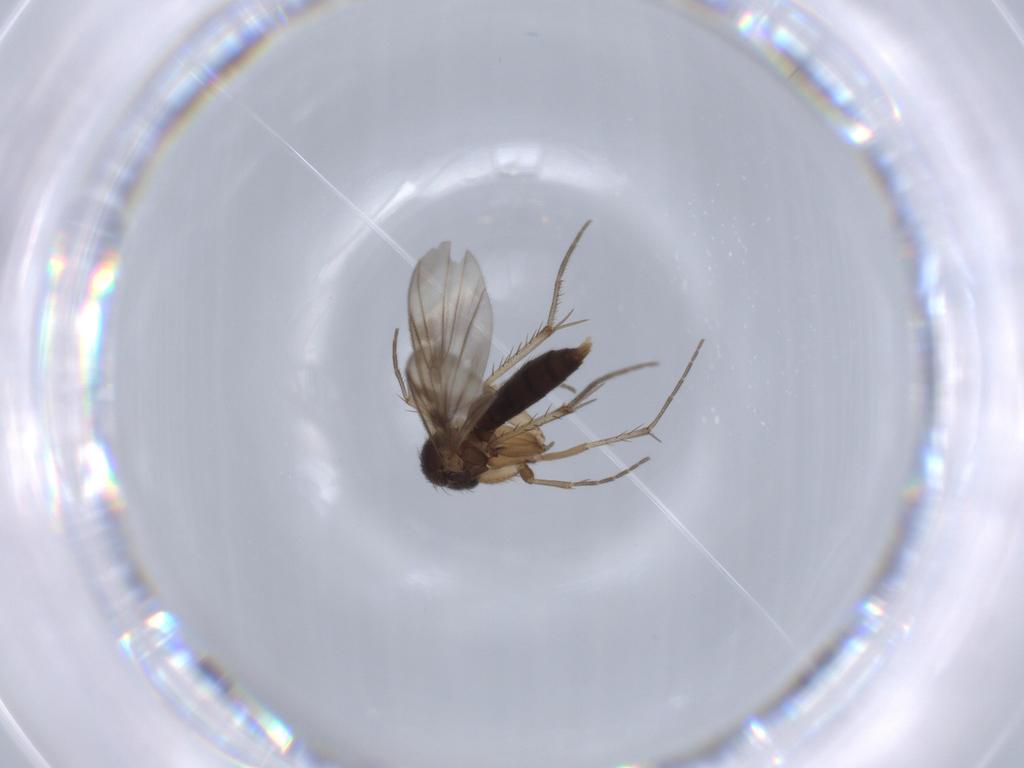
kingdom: Animalia
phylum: Arthropoda
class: Insecta
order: Diptera
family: Phoridae
